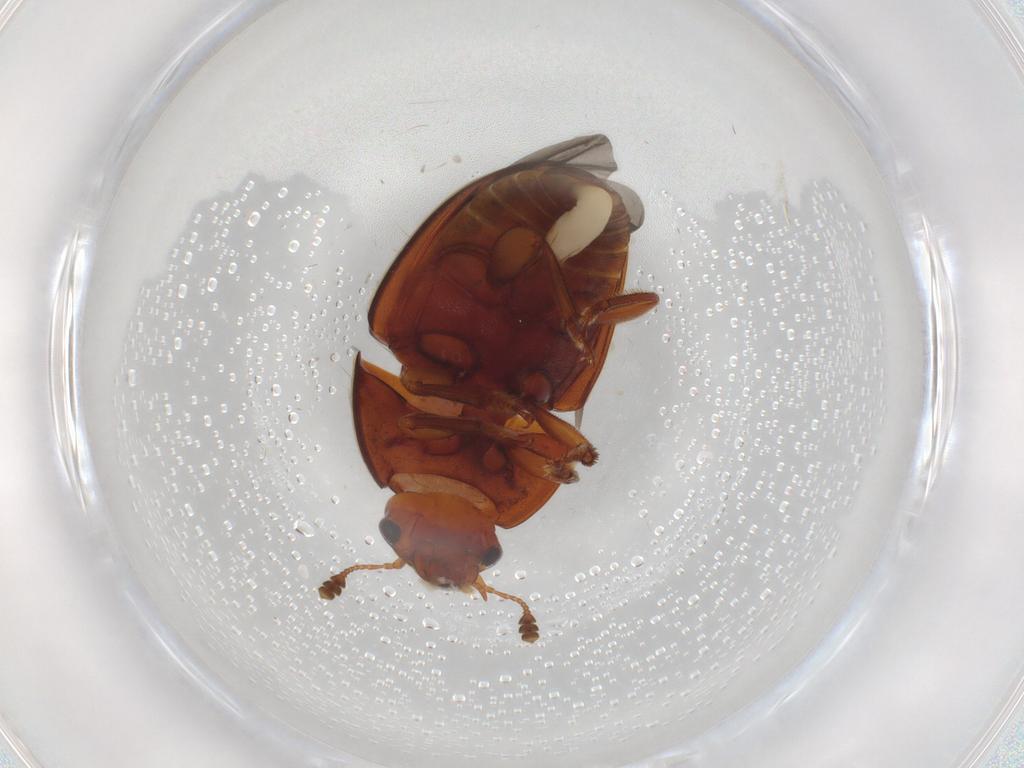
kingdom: Animalia
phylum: Arthropoda
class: Insecta
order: Coleoptera
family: Nitidulidae
